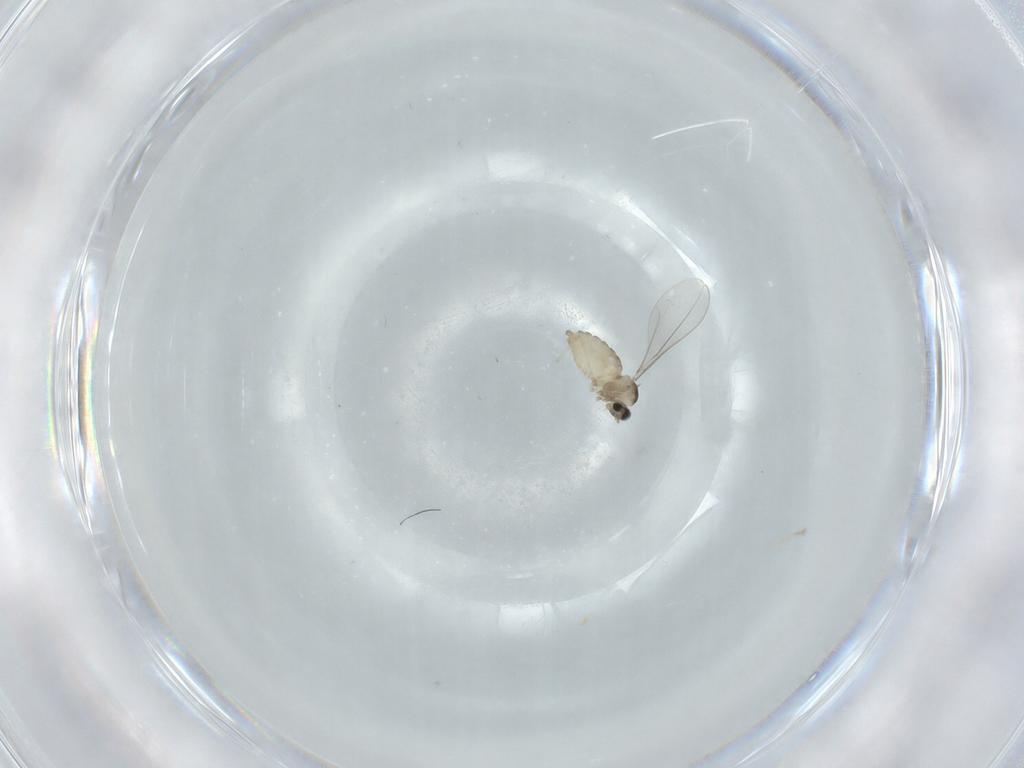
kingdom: Animalia
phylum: Arthropoda
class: Insecta
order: Diptera
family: Cecidomyiidae
